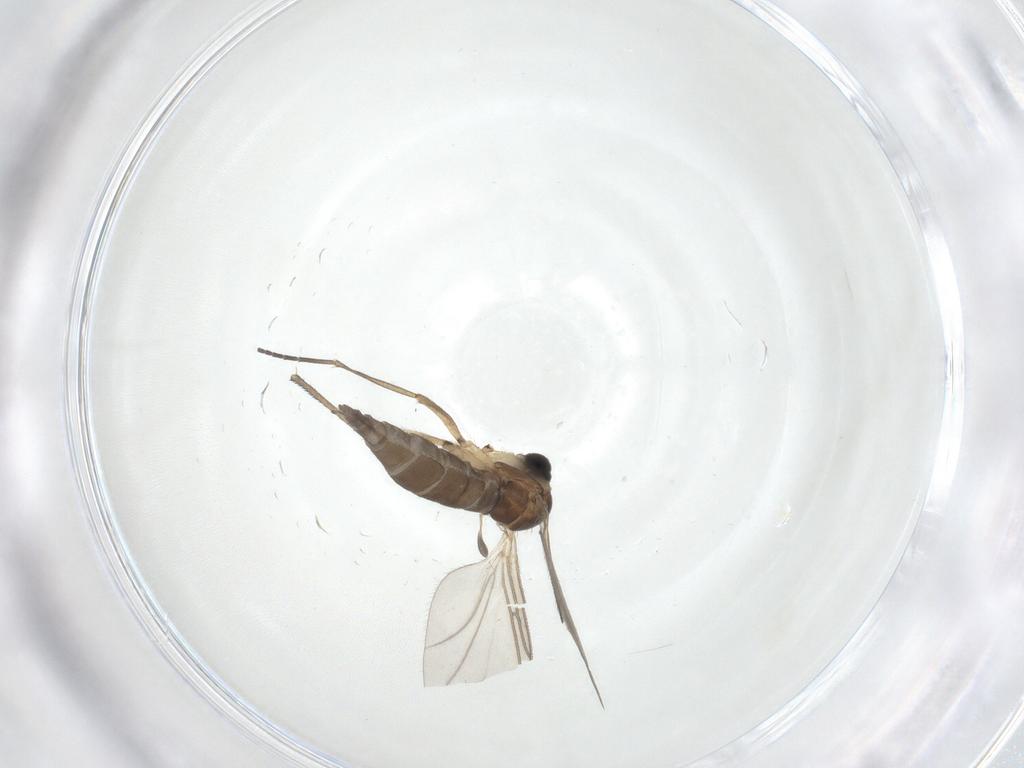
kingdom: Animalia
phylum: Arthropoda
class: Insecta
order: Diptera
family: Sciaridae
